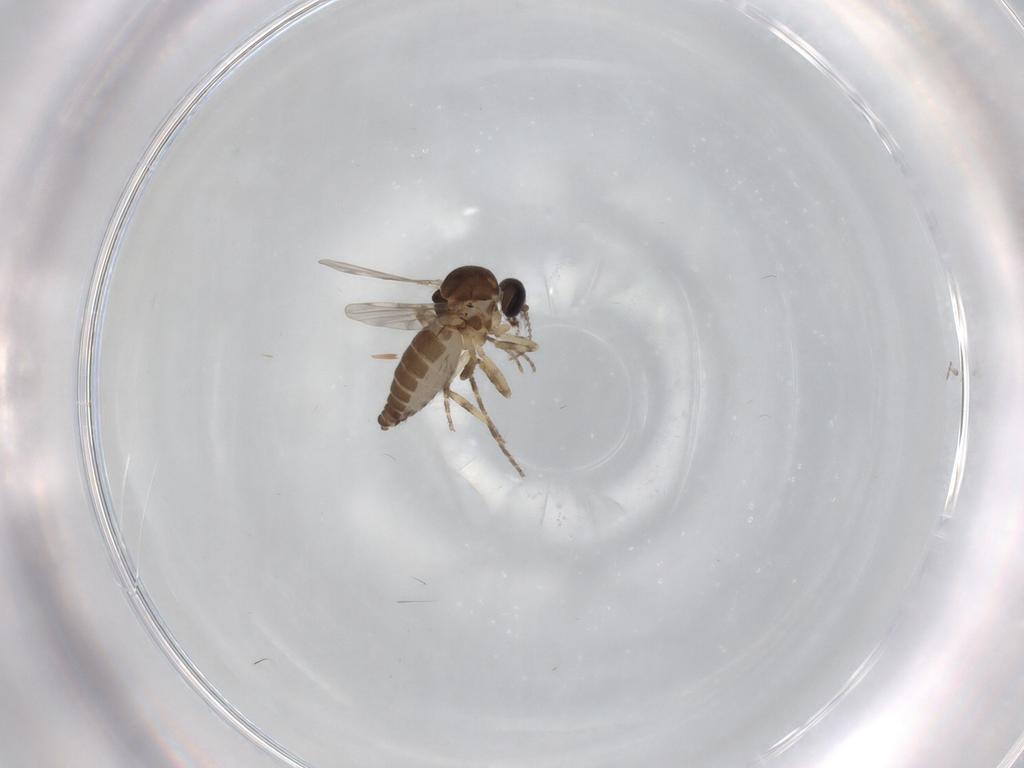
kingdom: Animalia
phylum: Arthropoda
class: Insecta
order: Diptera
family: Ceratopogonidae
